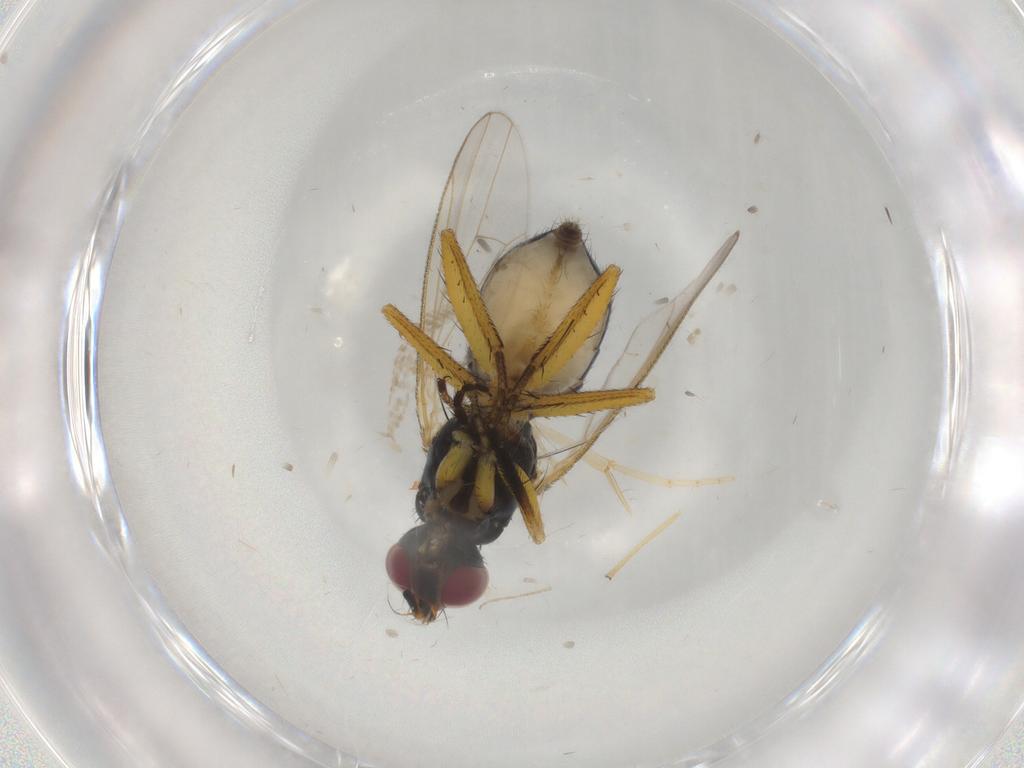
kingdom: Animalia
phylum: Arthropoda
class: Insecta
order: Diptera
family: Muscidae
